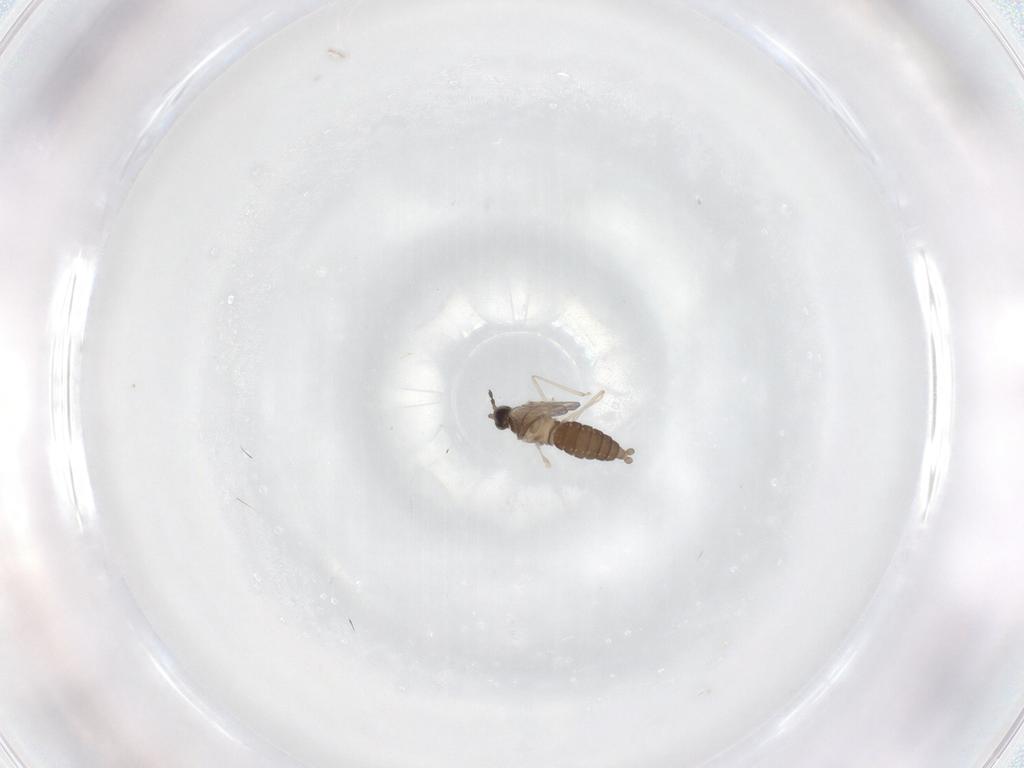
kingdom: Animalia
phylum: Arthropoda
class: Insecta
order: Diptera
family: Cecidomyiidae
